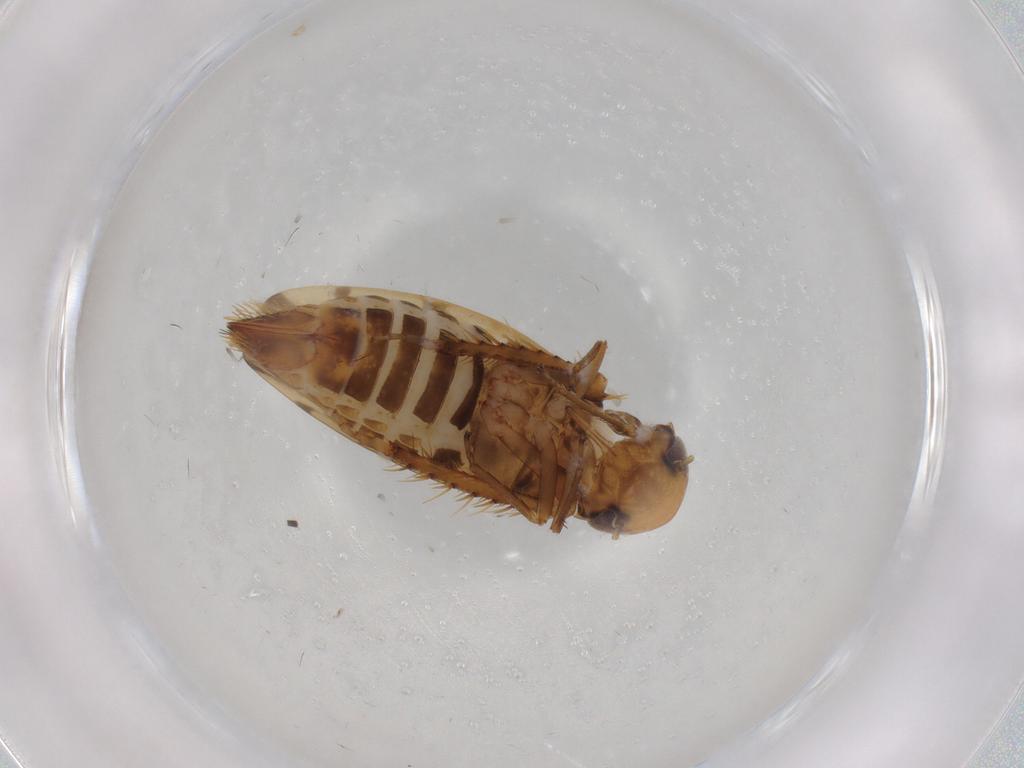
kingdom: Animalia
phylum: Arthropoda
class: Insecta
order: Hemiptera
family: Cicadellidae
